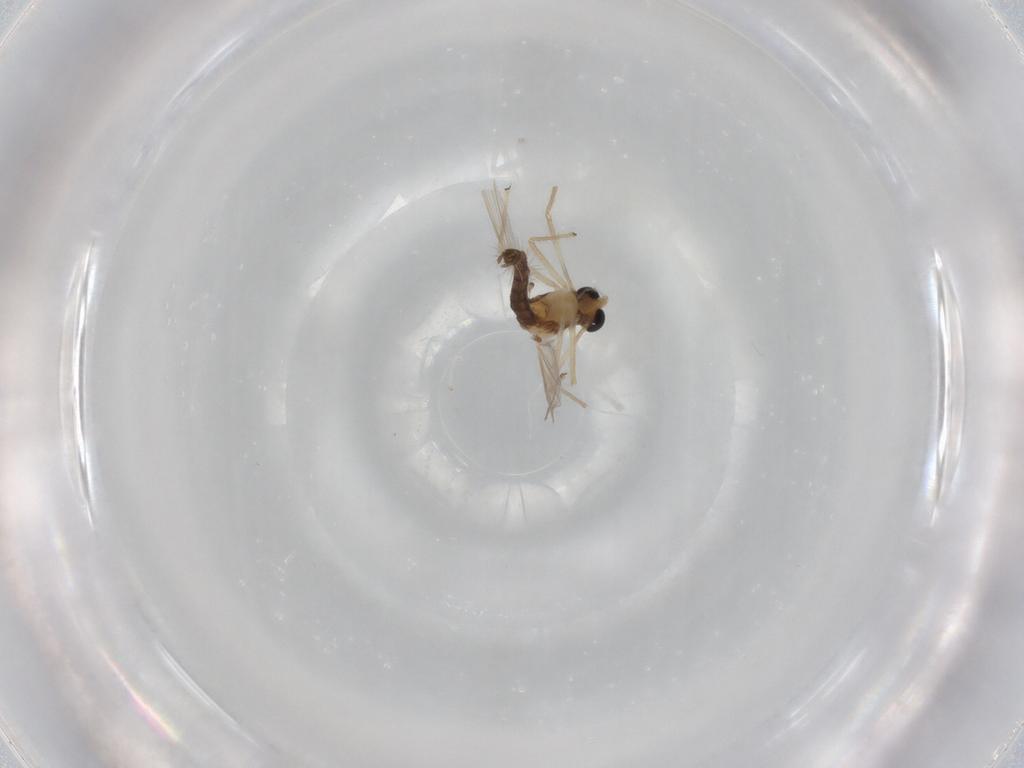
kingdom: Animalia
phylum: Arthropoda
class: Insecta
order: Diptera
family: Chironomidae
